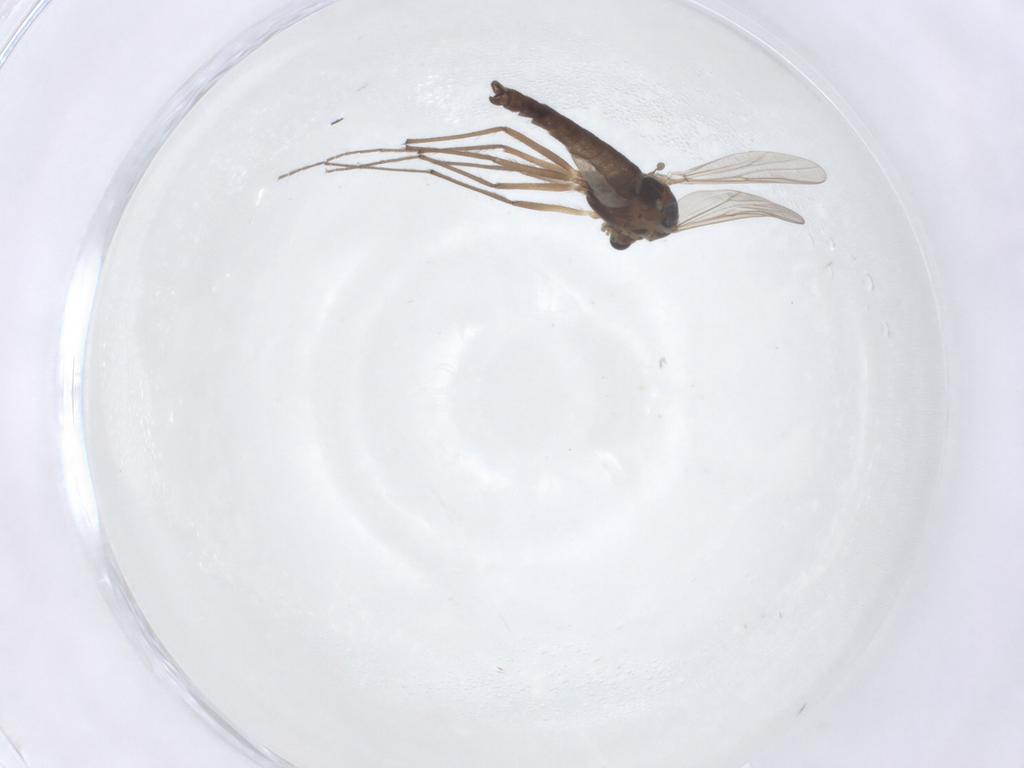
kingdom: Animalia
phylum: Arthropoda
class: Insecta
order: Diptera
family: Chironomidae
